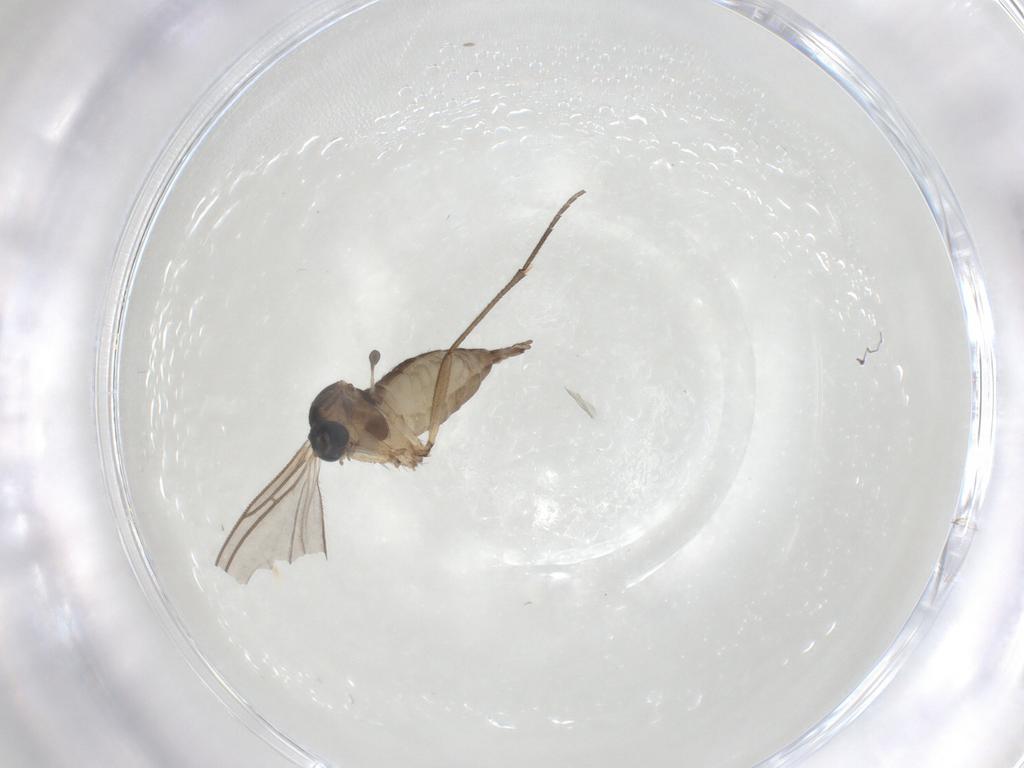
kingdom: Animalia
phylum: Arthropoda
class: Insecta
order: Diptera
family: Sciaridae
